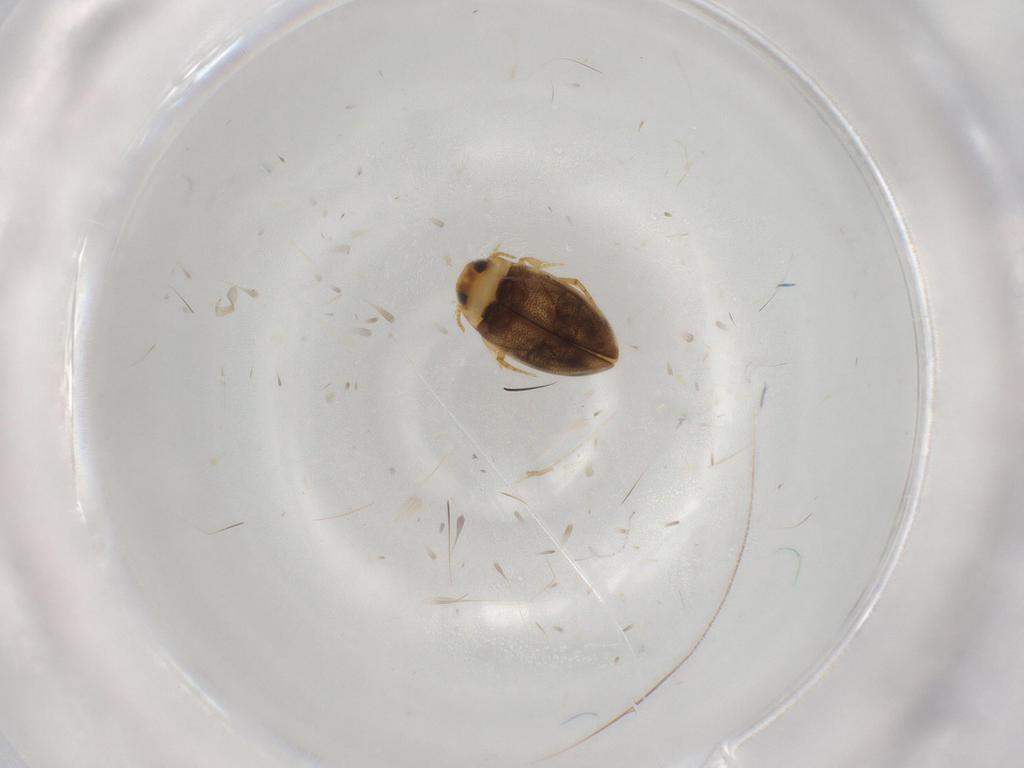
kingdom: Animalia
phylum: Arthropoda
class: Insecta
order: Coleoptera
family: Dytiscidae
